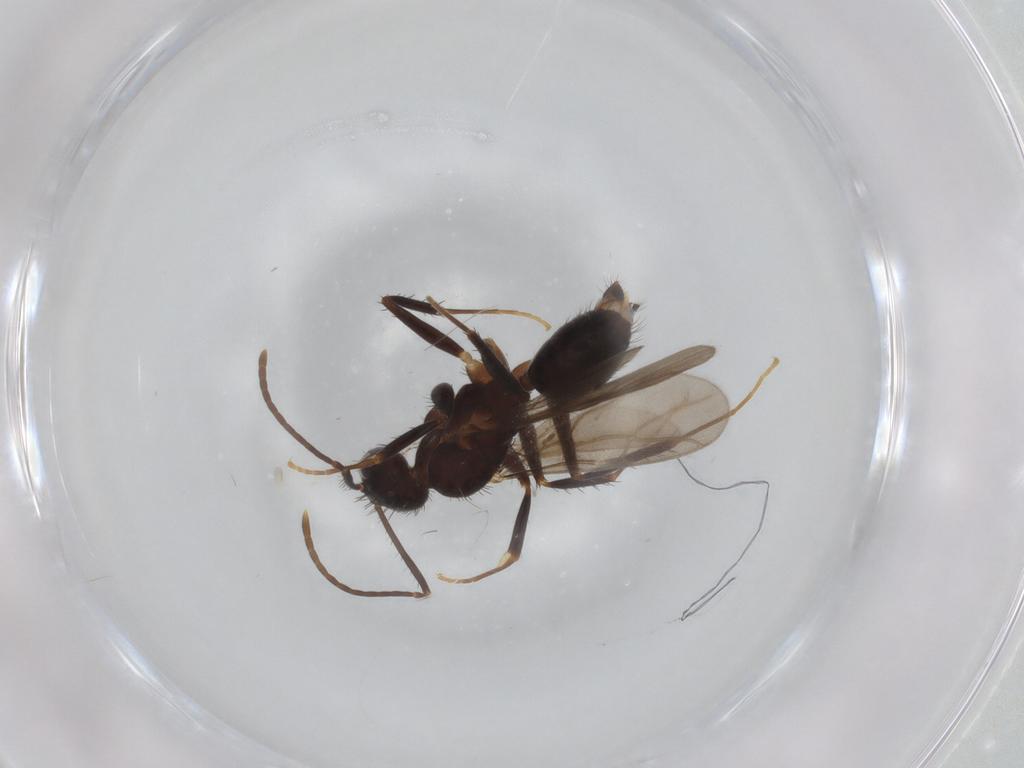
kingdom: Animalia
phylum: Arthropoda
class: Insecta
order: Hymenoptera
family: Formicidae
